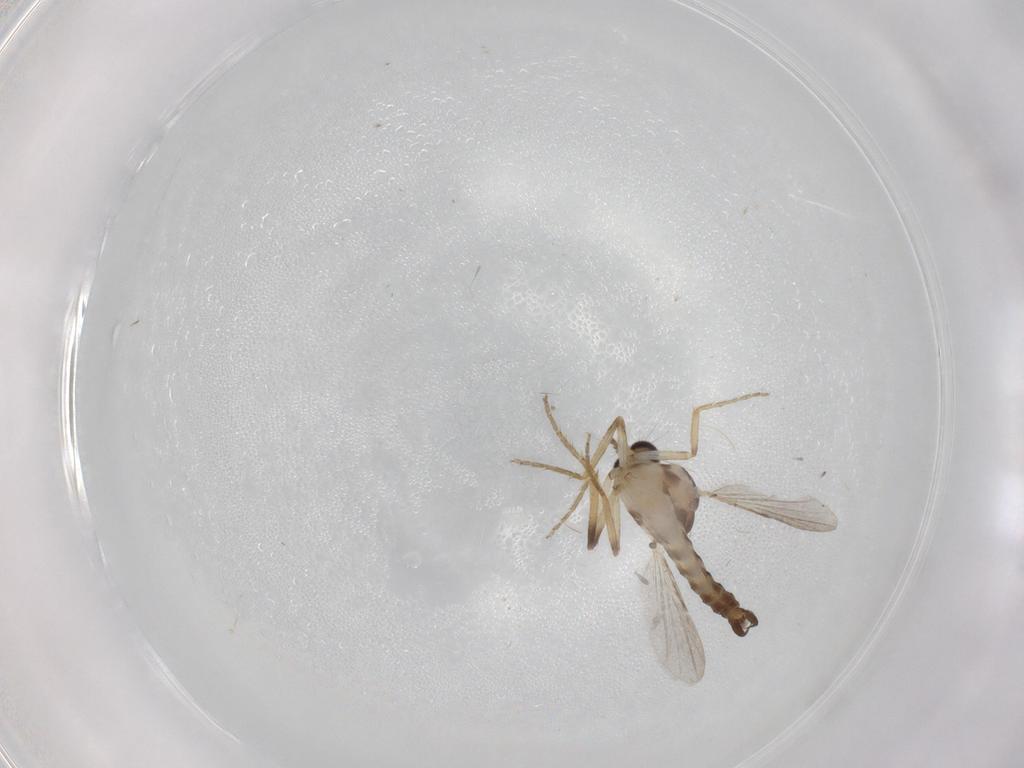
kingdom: Animalia
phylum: Arthropoda
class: Insecta
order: Diptera
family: Ceratopogonidae
